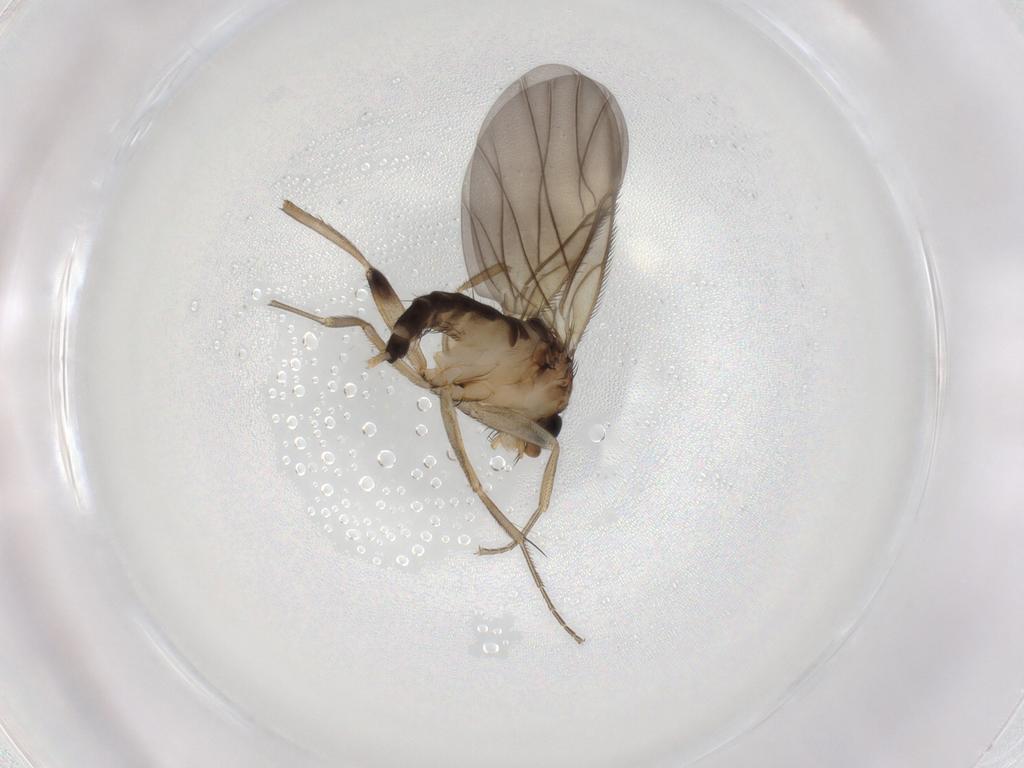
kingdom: Animalia
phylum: Arthropoda
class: Insecta
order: Diptera
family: Phoridae
